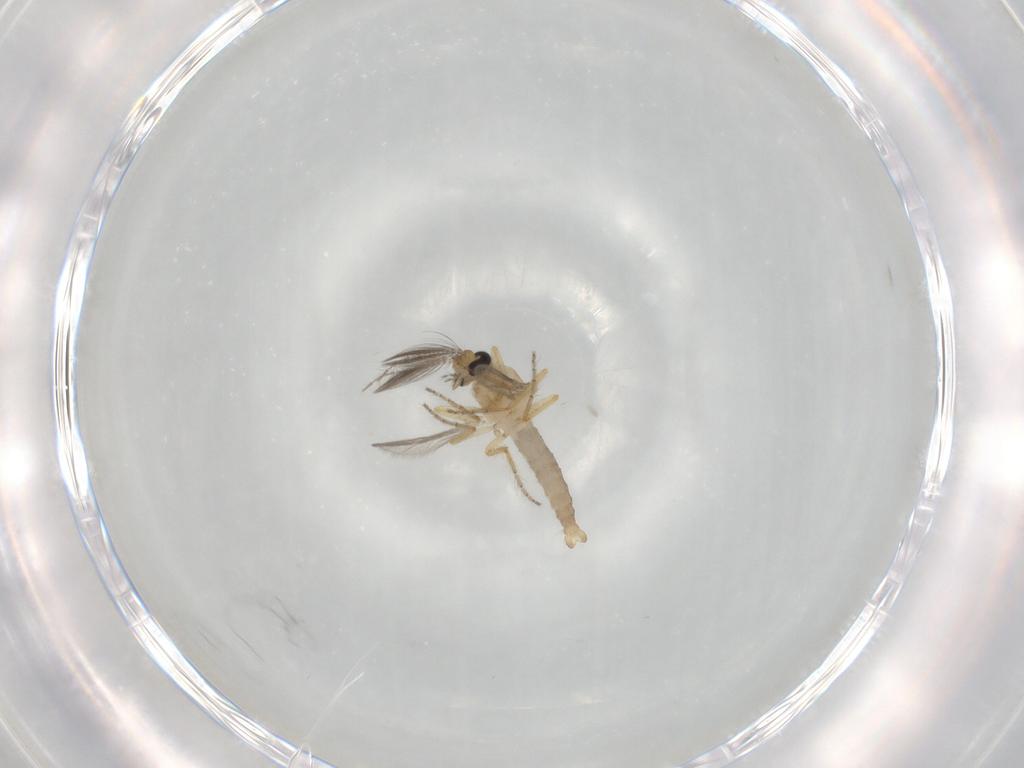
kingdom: Animalia
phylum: Arthropoda
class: Insecta
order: Diptera
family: Ceratopogonidae
